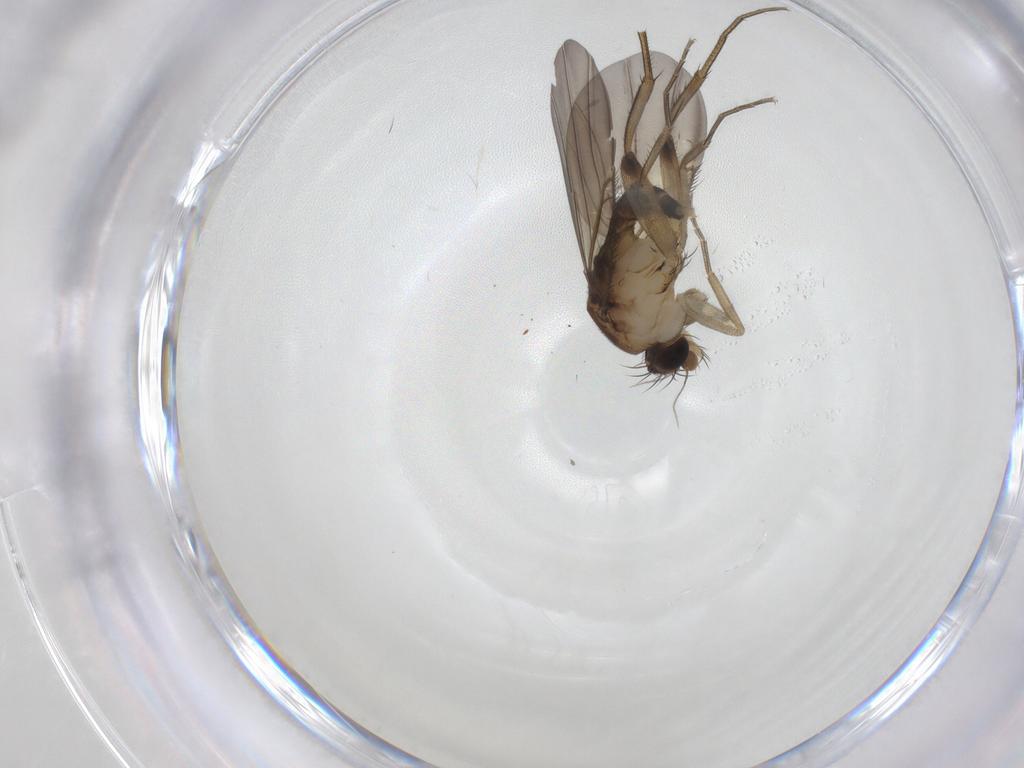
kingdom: Animalia
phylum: Arthropoda
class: Insecta
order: Diptera
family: Phoridae
